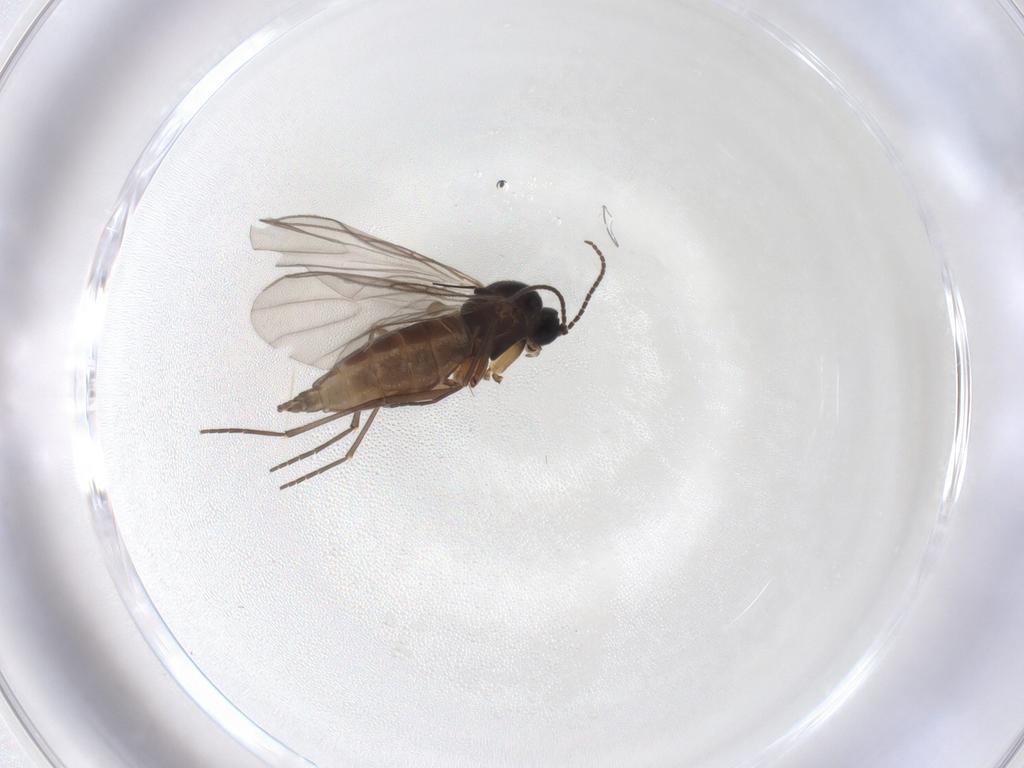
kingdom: Animalia
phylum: Arthropoda
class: Insecta
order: Diptera
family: Sciaridae
